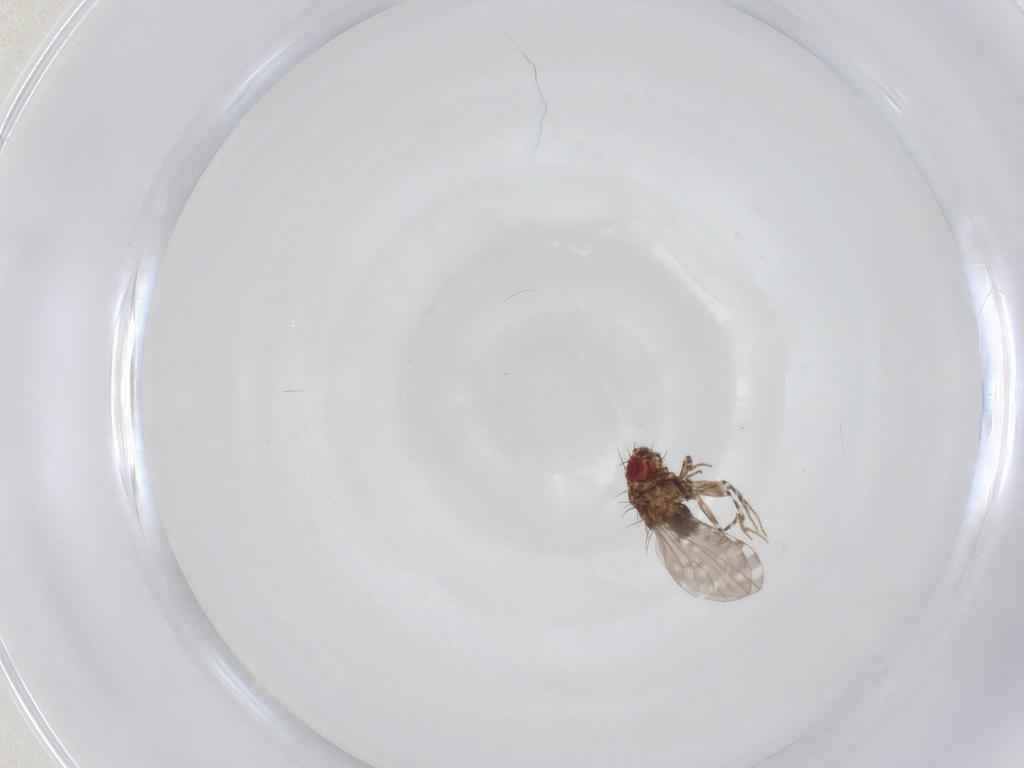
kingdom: Animalia
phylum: Arthropoda
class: Insecta
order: Diptera
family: Drosophilidae
